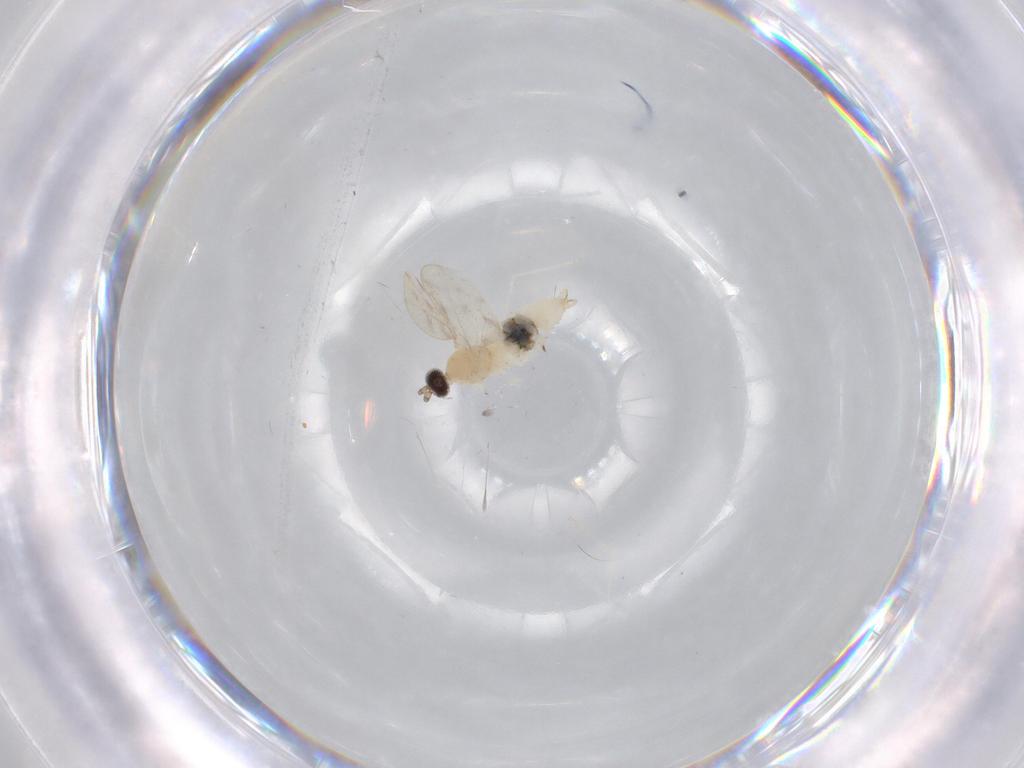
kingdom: Animalia
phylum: Arthropoda
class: Insecta
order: Diptera
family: Cecidomyiidae
